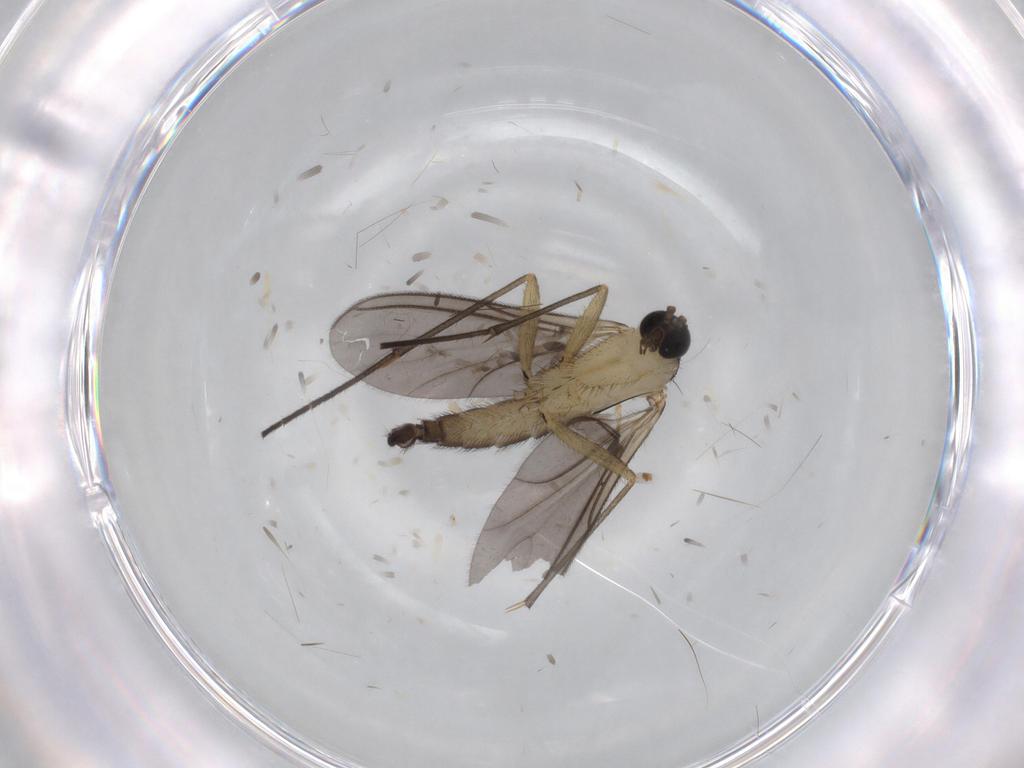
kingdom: Animalia
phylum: Arthropoda
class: Insecta
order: Diptera
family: Sciaridae
